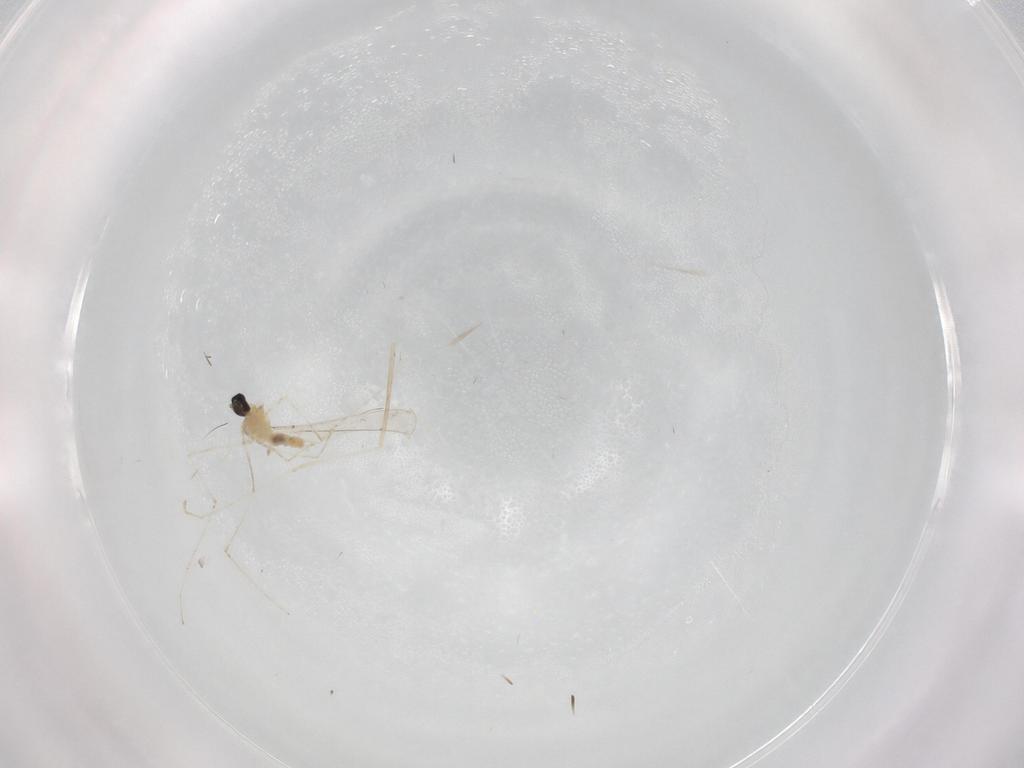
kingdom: Animalia
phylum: Arthropoda
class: Insecta
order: Diptera
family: Cecidomyiidae
